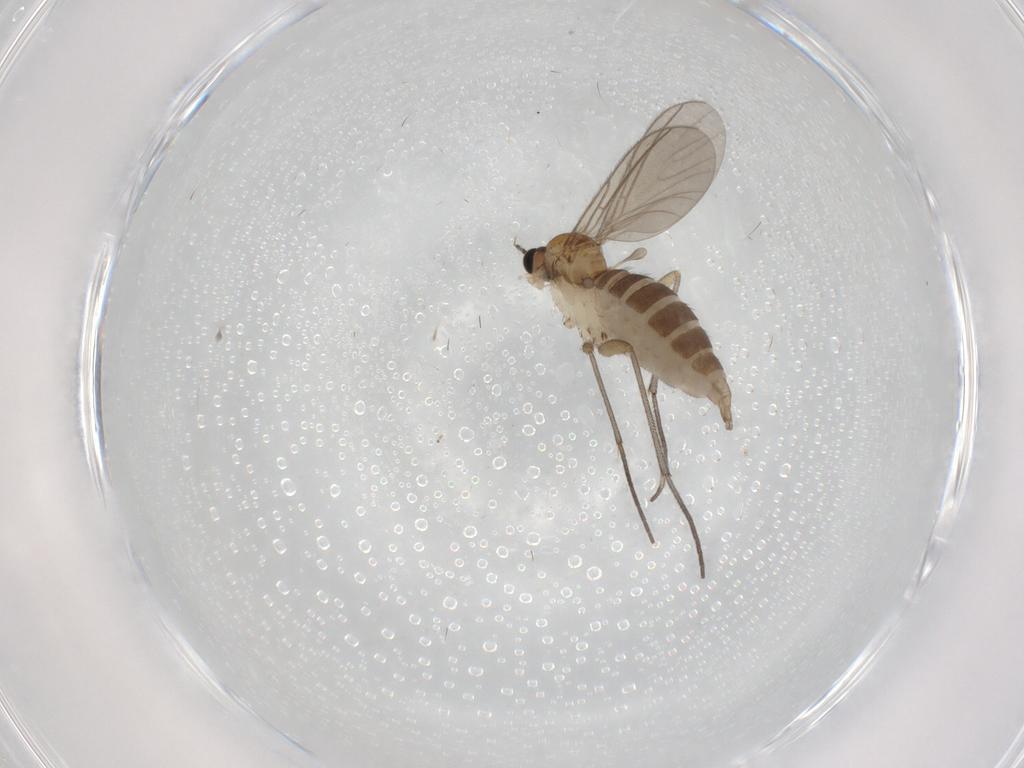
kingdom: Animalia
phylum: Arthropoda
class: Insecta
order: Diptera
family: Sciaridae
